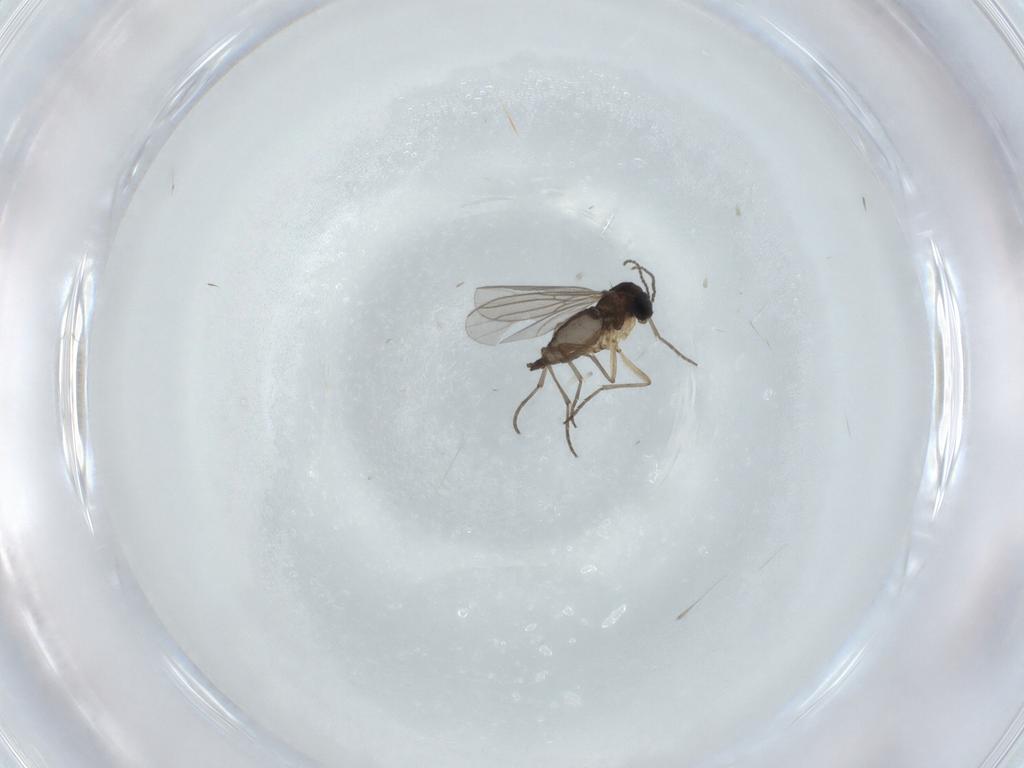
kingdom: Animalia
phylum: Arthropoda
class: Insecta
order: Diptera
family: Sciaridae
